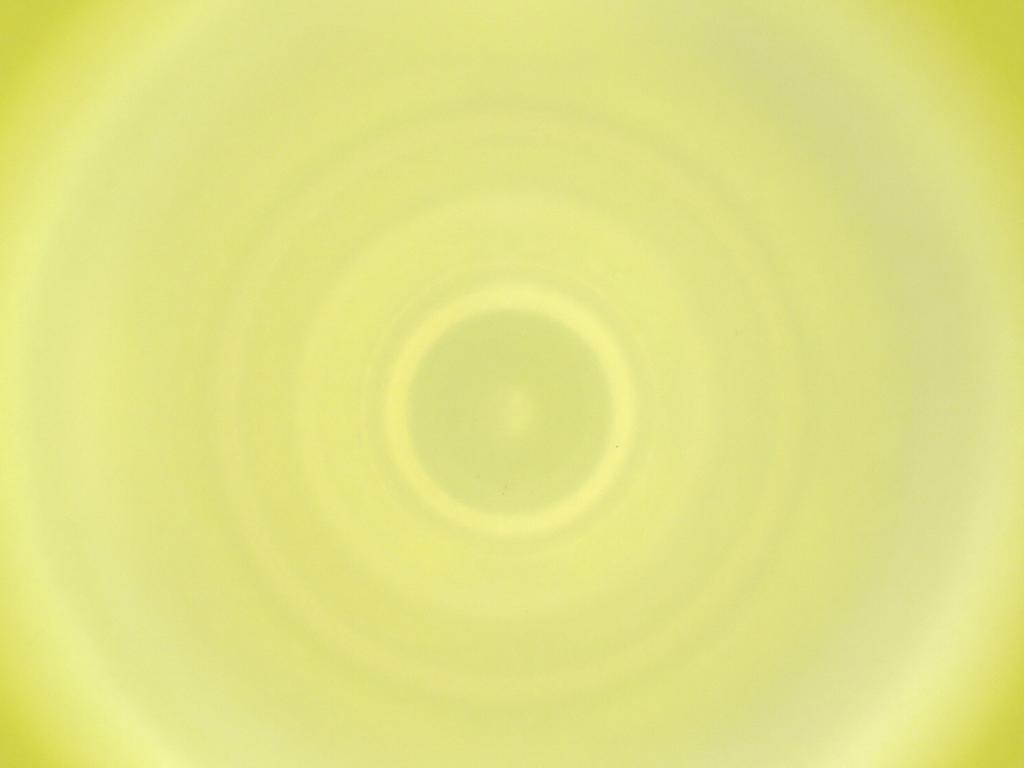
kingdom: Animalia
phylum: Arthropoda
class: Insecta
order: Diptera
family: Cecidomyiidae
